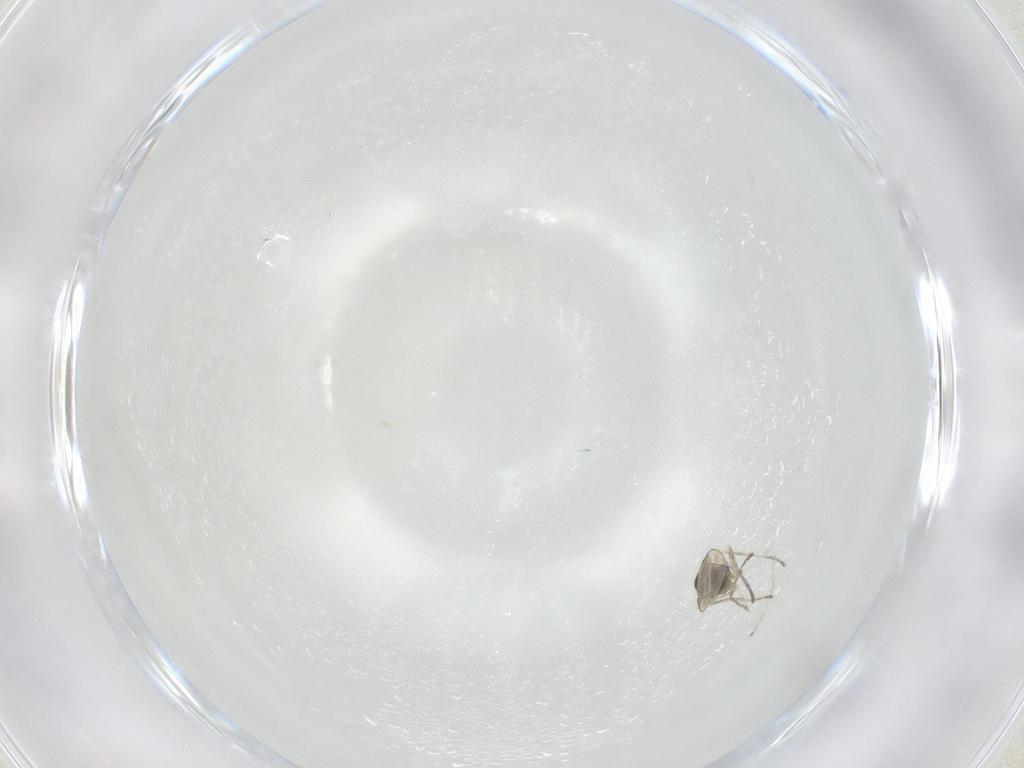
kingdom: Animalia
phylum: Arthropoda
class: Insecta
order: Diptera
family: Cecidomyiidae
